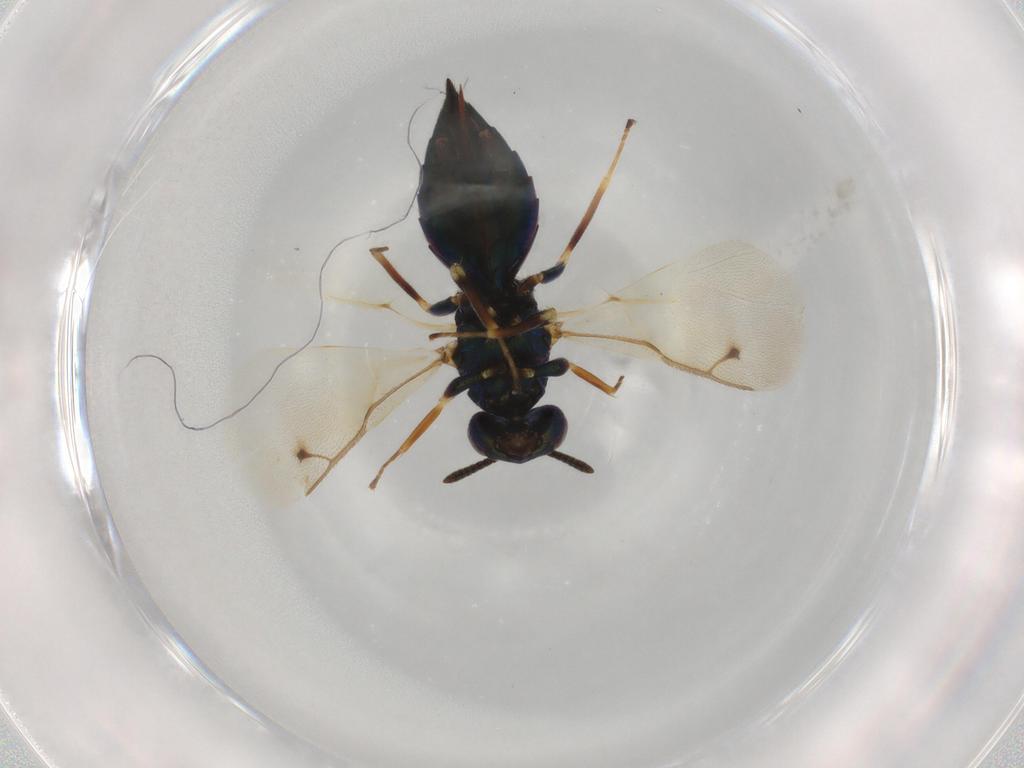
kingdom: Animalia
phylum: Arthropoda
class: Insecta
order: Hymenoptera
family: Pteromalidae
